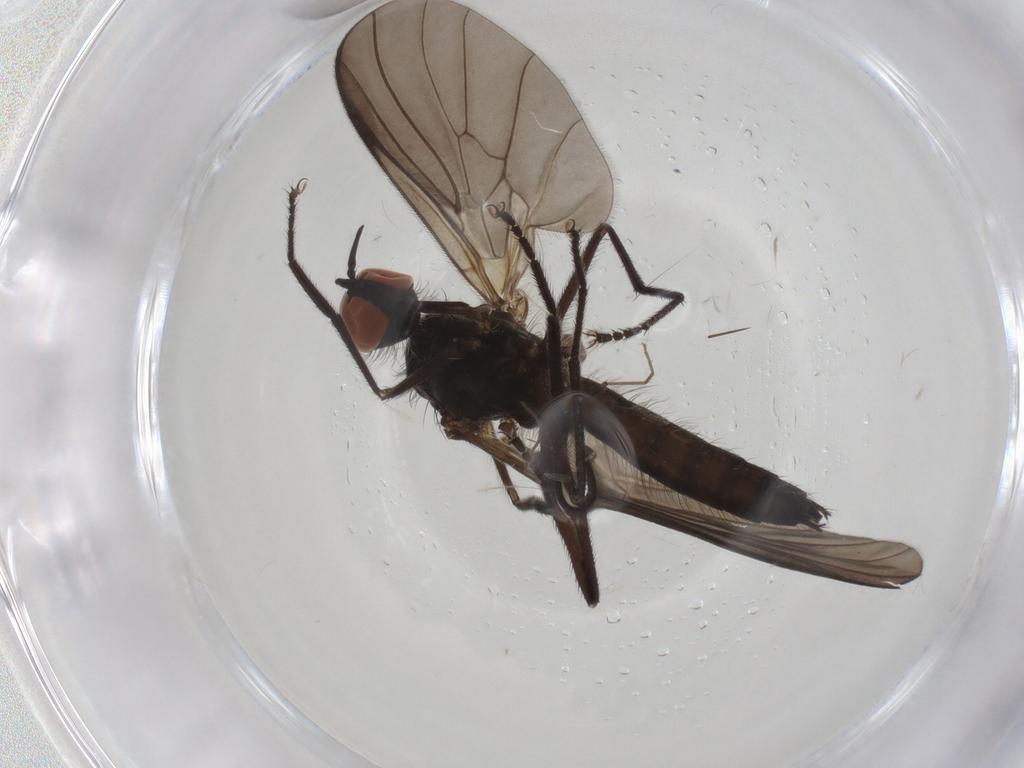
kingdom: Animalia
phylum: Arthropoda
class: Insecta
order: Diptera
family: Empididae
